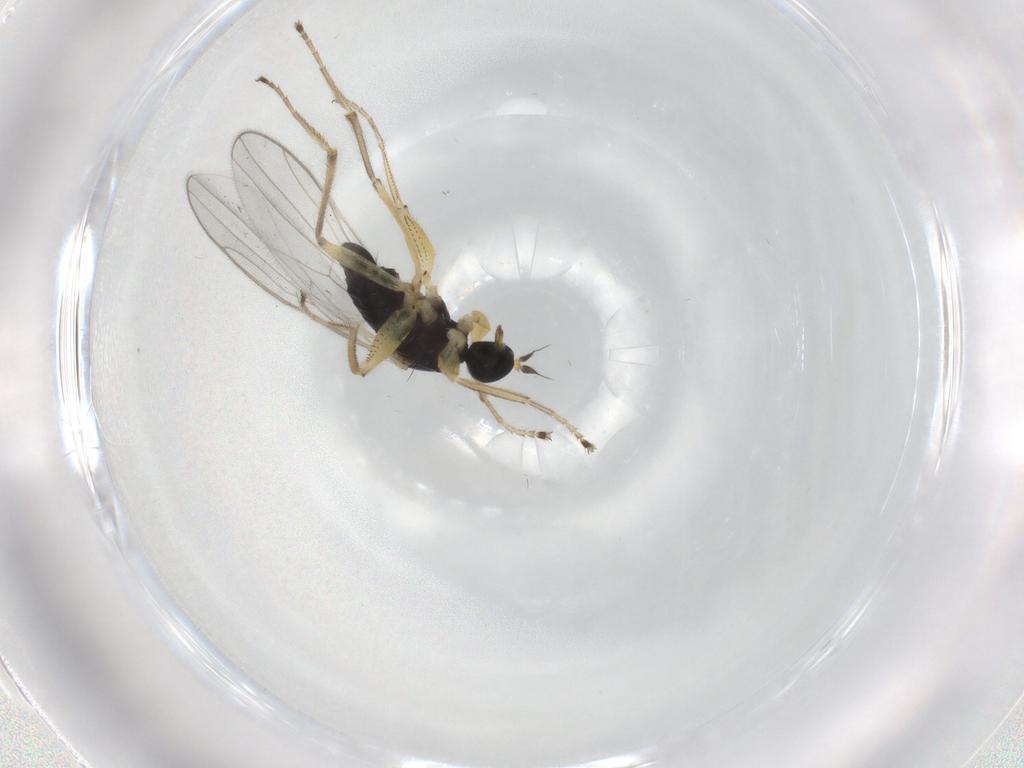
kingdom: Animalia
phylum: Arthropoda
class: Insecta
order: Diptera
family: Hybotidae
